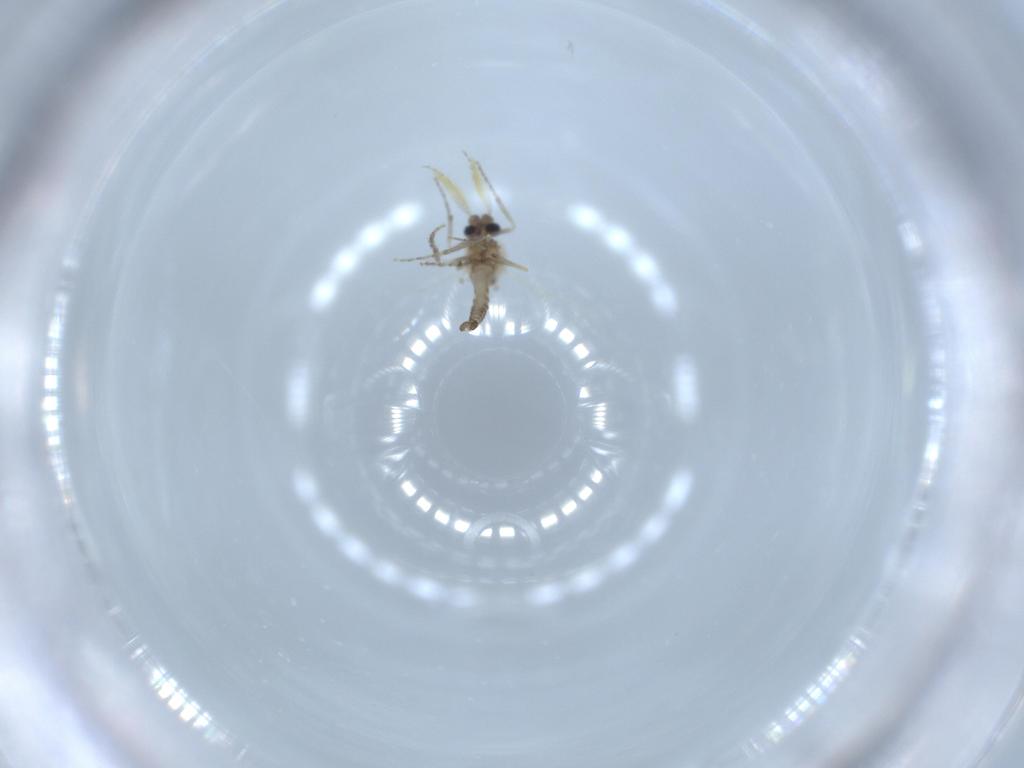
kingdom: Animalia
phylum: Arthropoda
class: Insecta
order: Diptera
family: Ceratopogonidae
